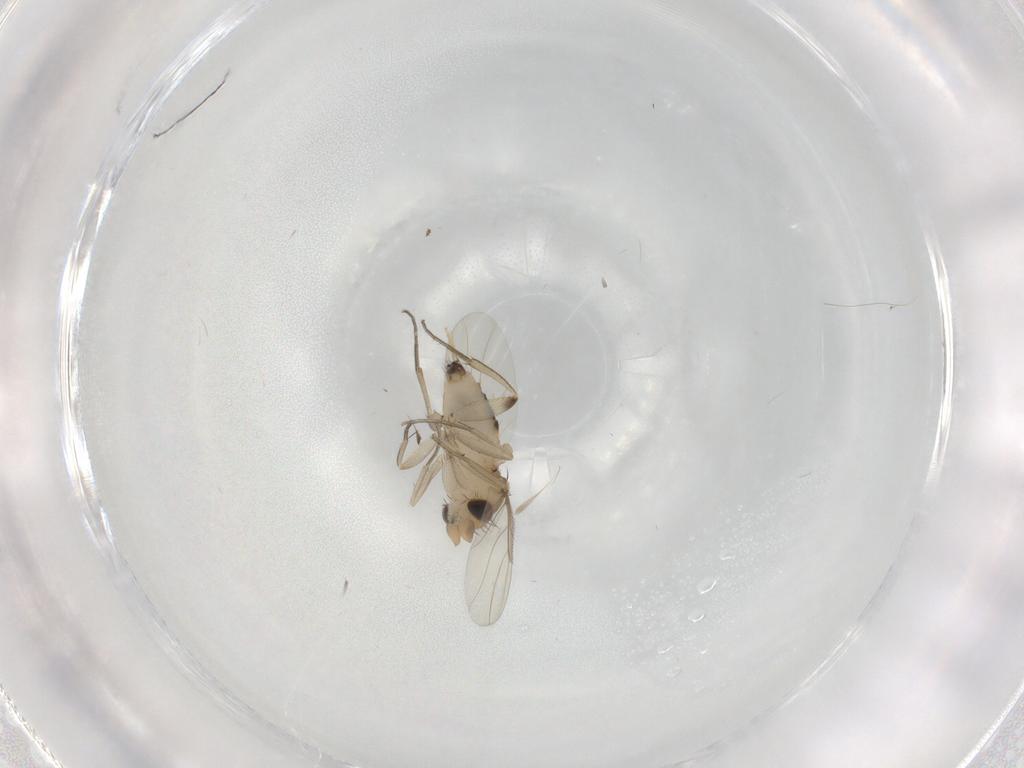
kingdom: Animalia
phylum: Arthropoda
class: Insecta
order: Diptera
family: Phoridae
